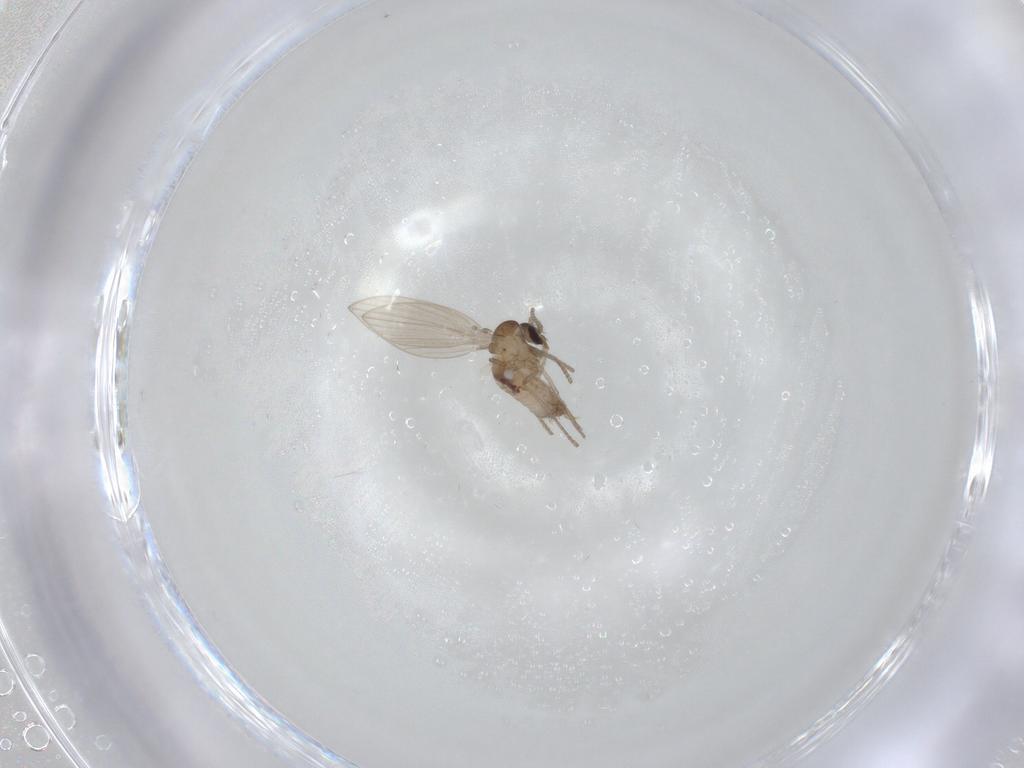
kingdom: Animalia
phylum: Arthropoda
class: Insecta
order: Diptera
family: Psychodidae
